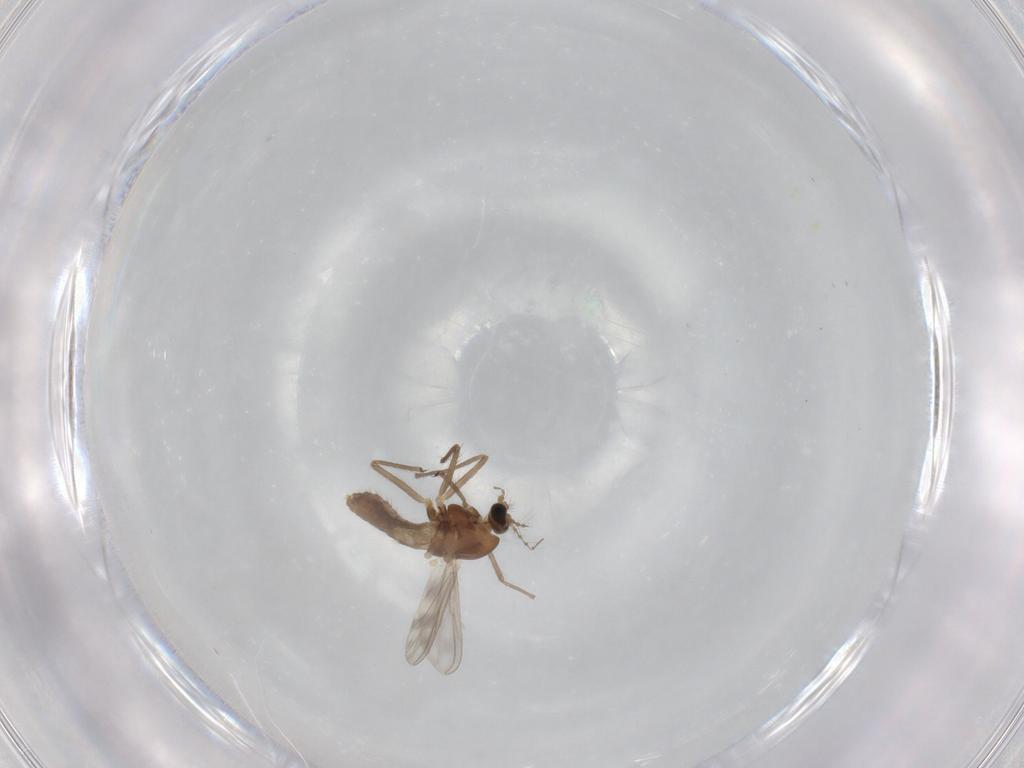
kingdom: Animalia
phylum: Arthropoda
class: Insecta
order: Diptera
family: Chironomidae
